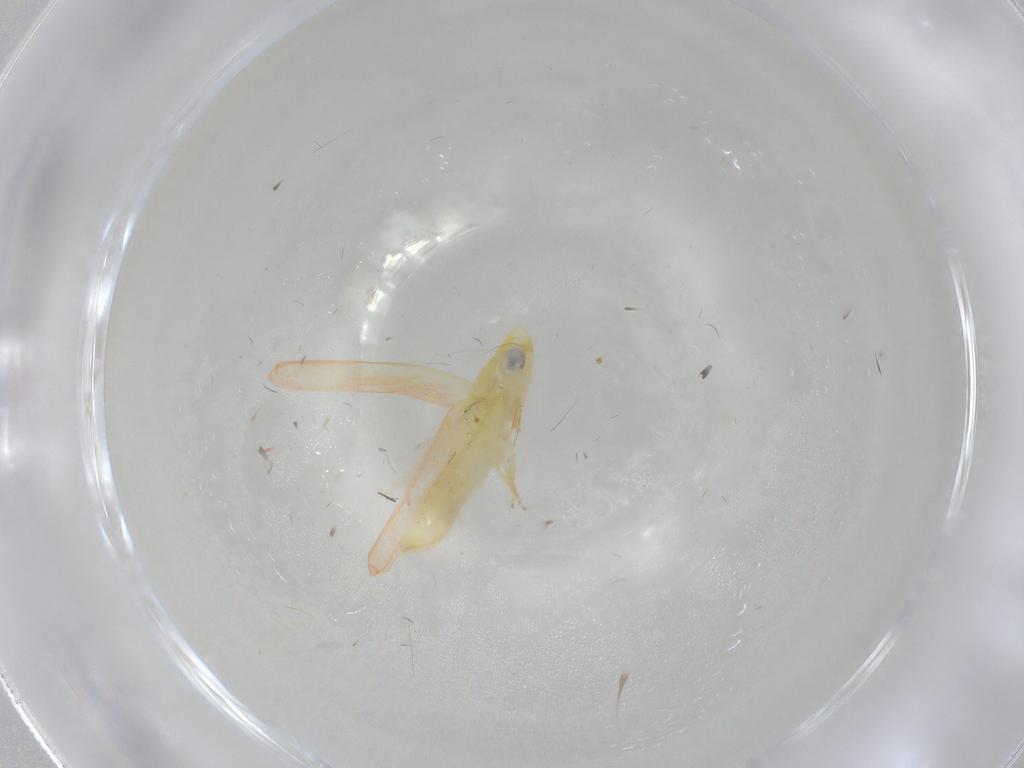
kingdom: Animalia
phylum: Arthropoda
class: Insecta
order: Hemiptera
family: Cicadellidae
